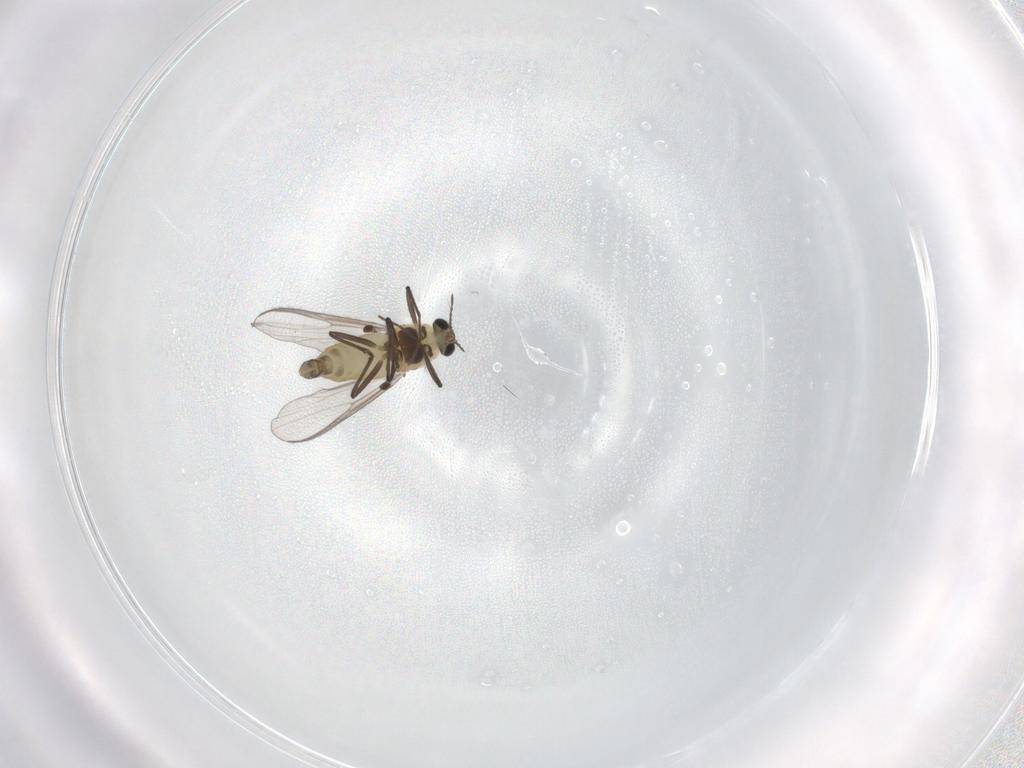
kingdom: Animalia
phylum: Arthropoda
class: Insecta
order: Diptera
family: Chironomidae
